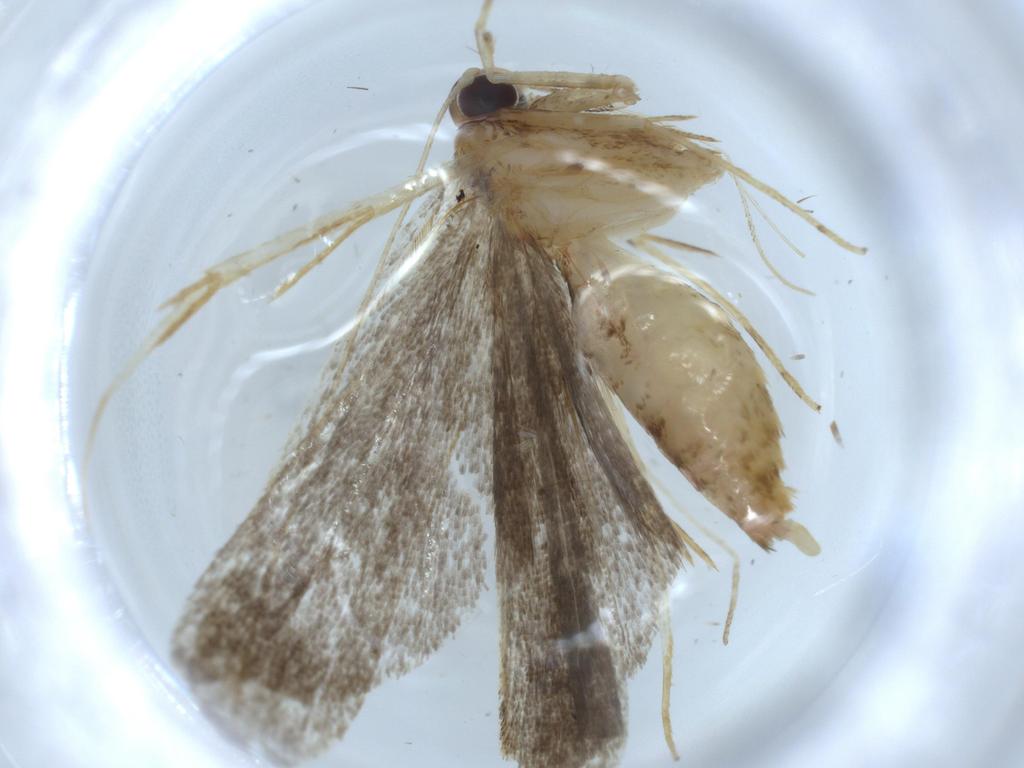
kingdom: Animalia
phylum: Arthropoda
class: Insecta
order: Lepidoptera
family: Autostichidae
